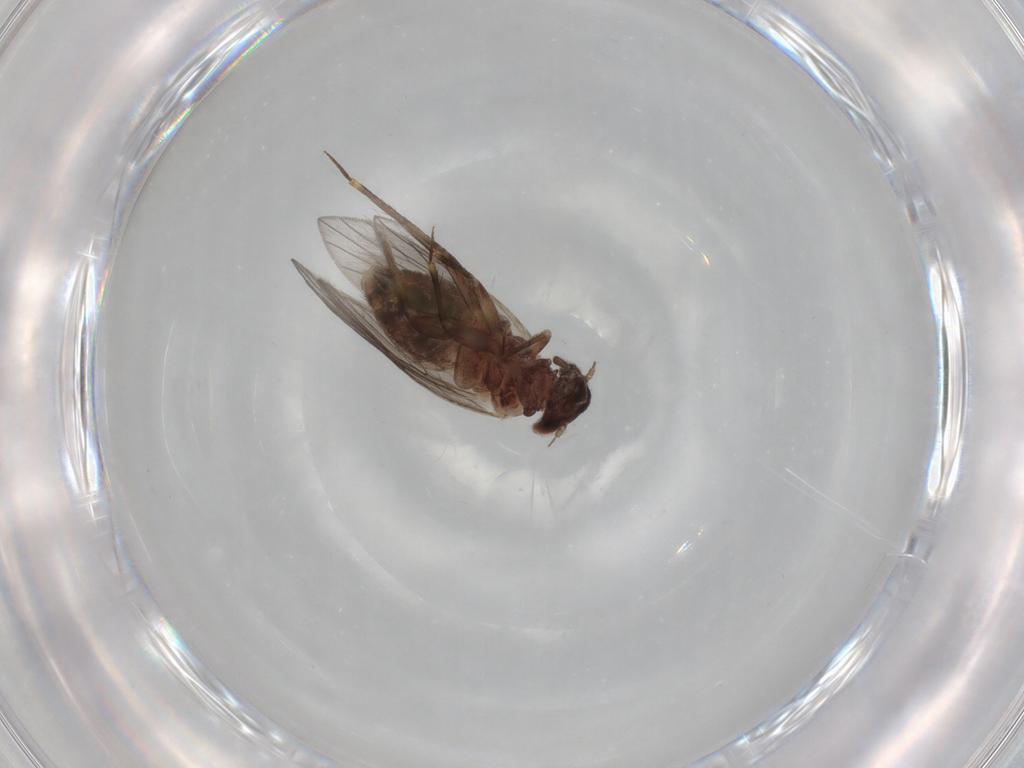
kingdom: Animalia
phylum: Arthropoda
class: Insecta
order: Psocodea
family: Lepidopsocidae
